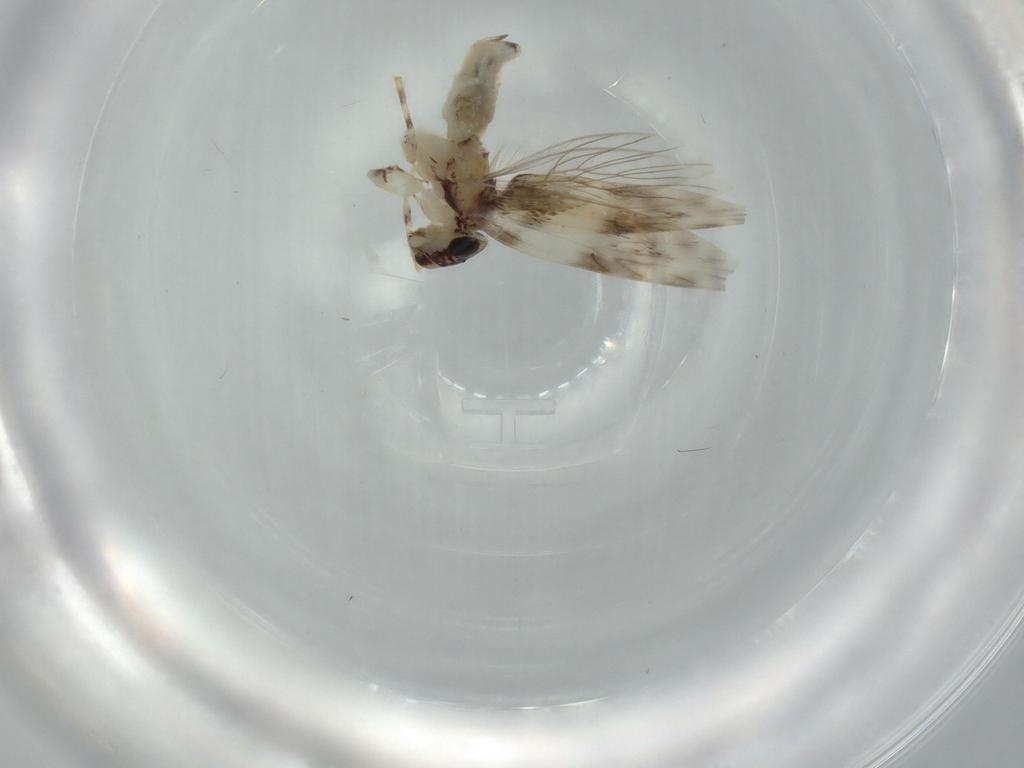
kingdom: Animalia
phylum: Arthropoda
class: Insecta
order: Psocodea
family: Lepidopsocidae
